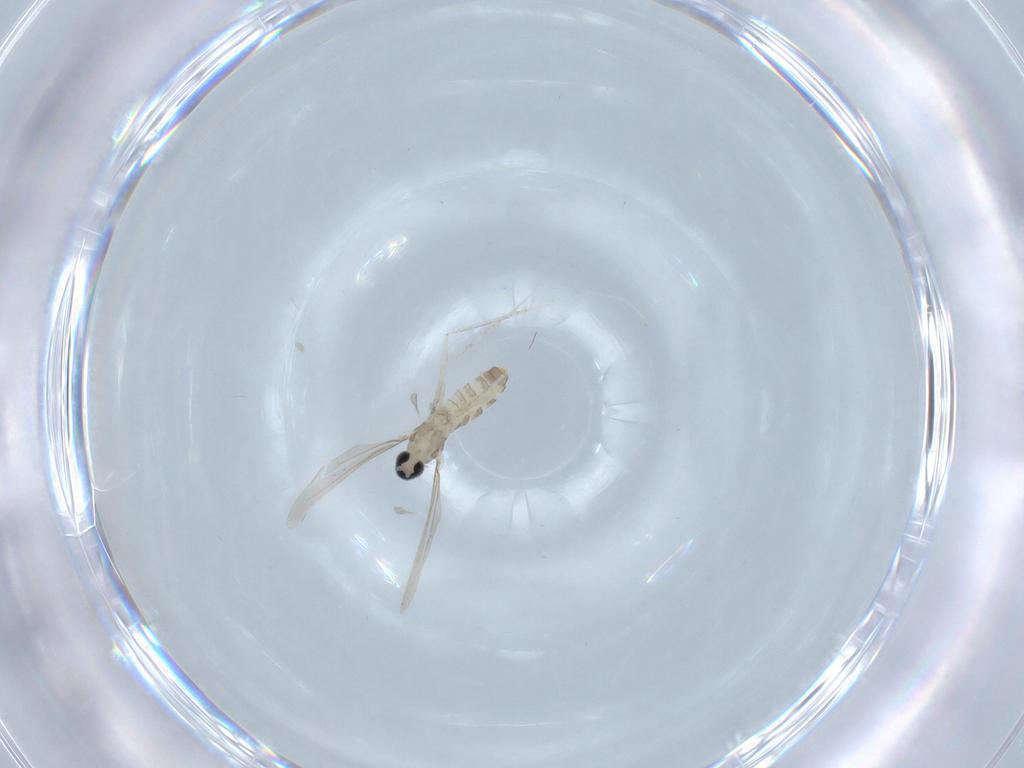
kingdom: Animalia
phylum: Arthropoda
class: Insecta
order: Diptera
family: Cecidomyiidae
